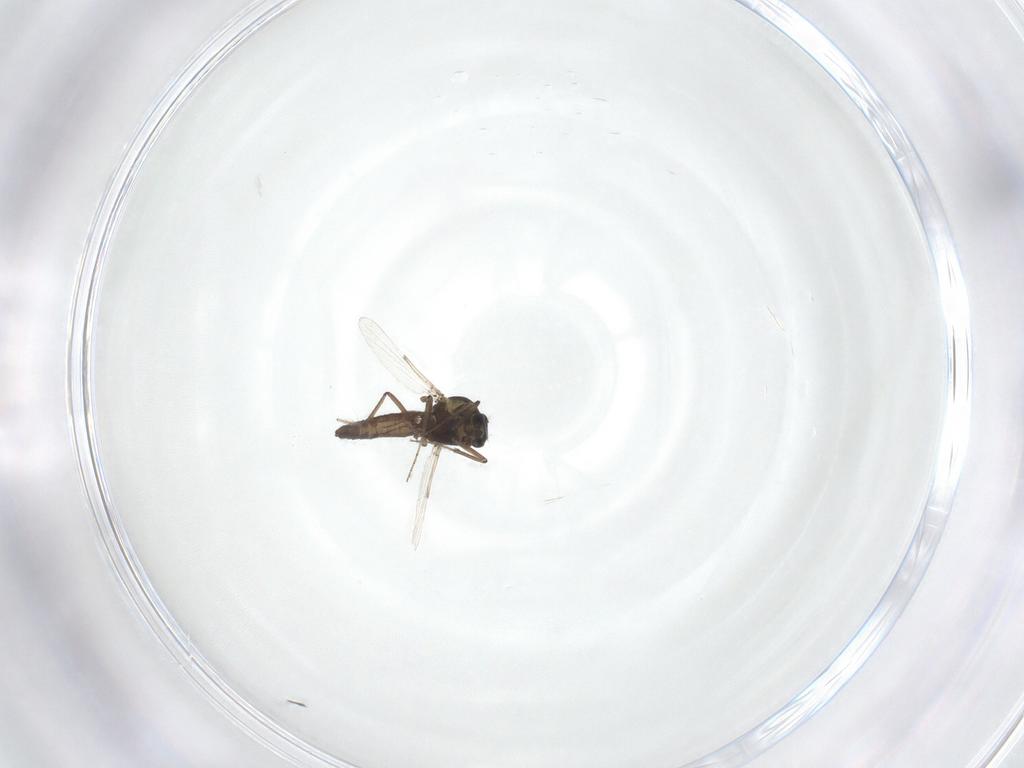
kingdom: Animalia
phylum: Arthropoda
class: Insecta
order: Diptera
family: Ceratopogonidae
